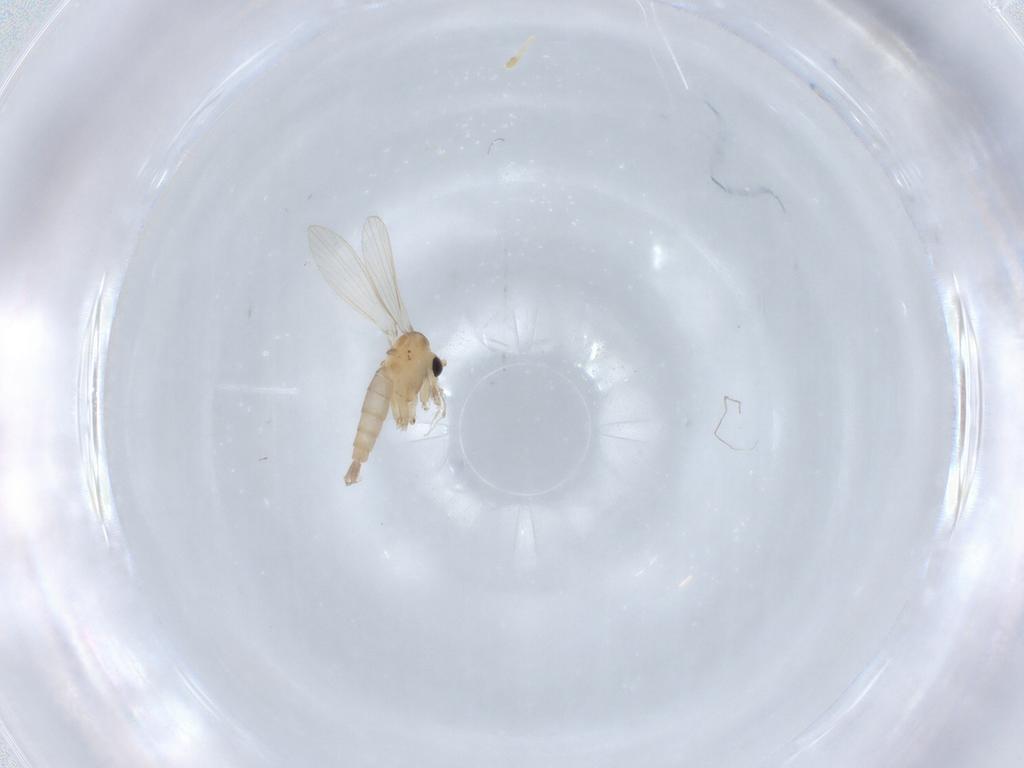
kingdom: Animalia
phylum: Arthropoda
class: Insecta
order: Diptera
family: Psychodidae
